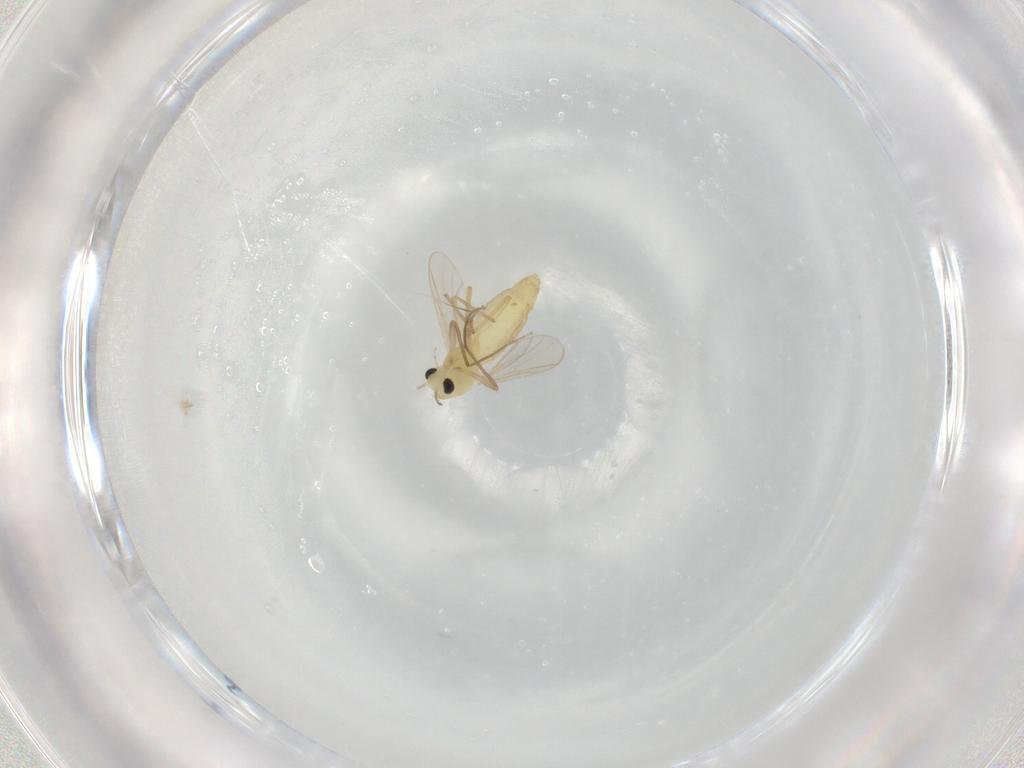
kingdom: Animalia
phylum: Arthropoda
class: Insecta
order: Diptera
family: Chironomidae
